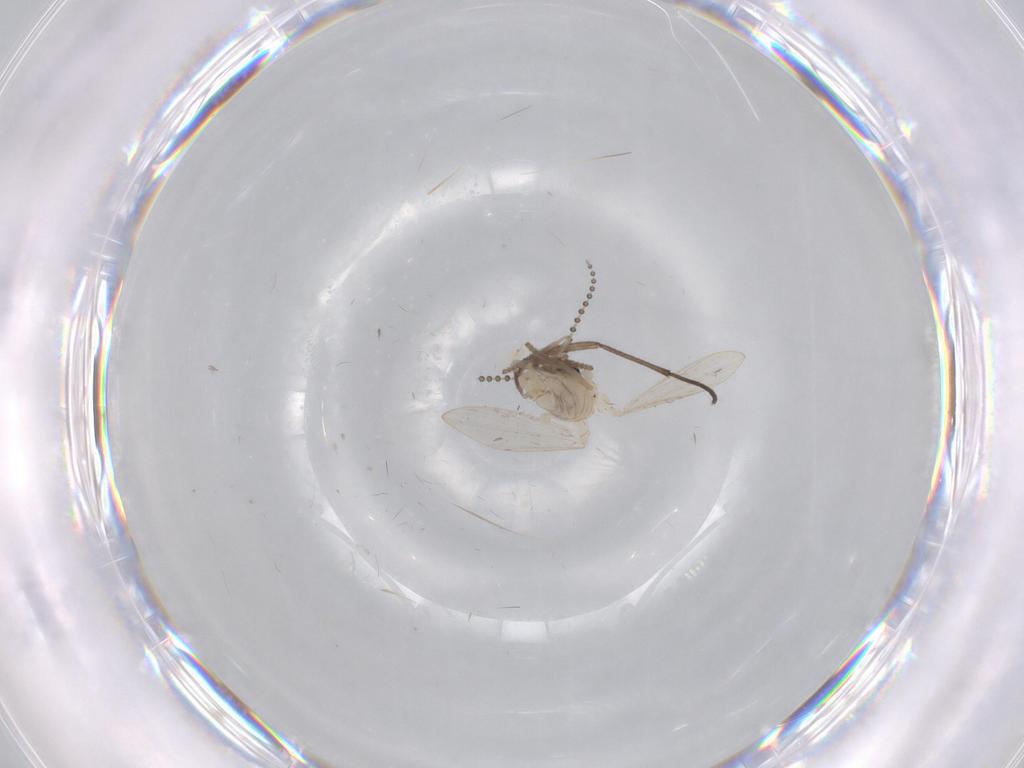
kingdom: Animalia
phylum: Arthropoda
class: Insecta
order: Diptera
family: Psychodidae
